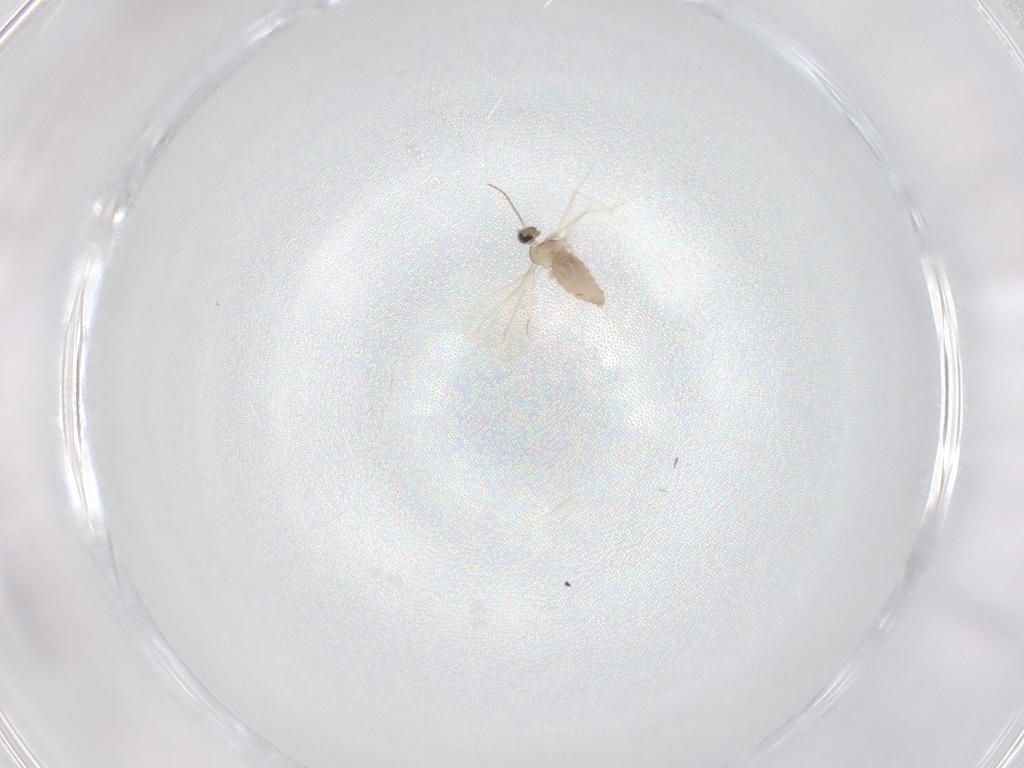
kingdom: Animalia
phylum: Arthropoda
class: Insecta
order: Diptera
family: Cecidomyiidae
